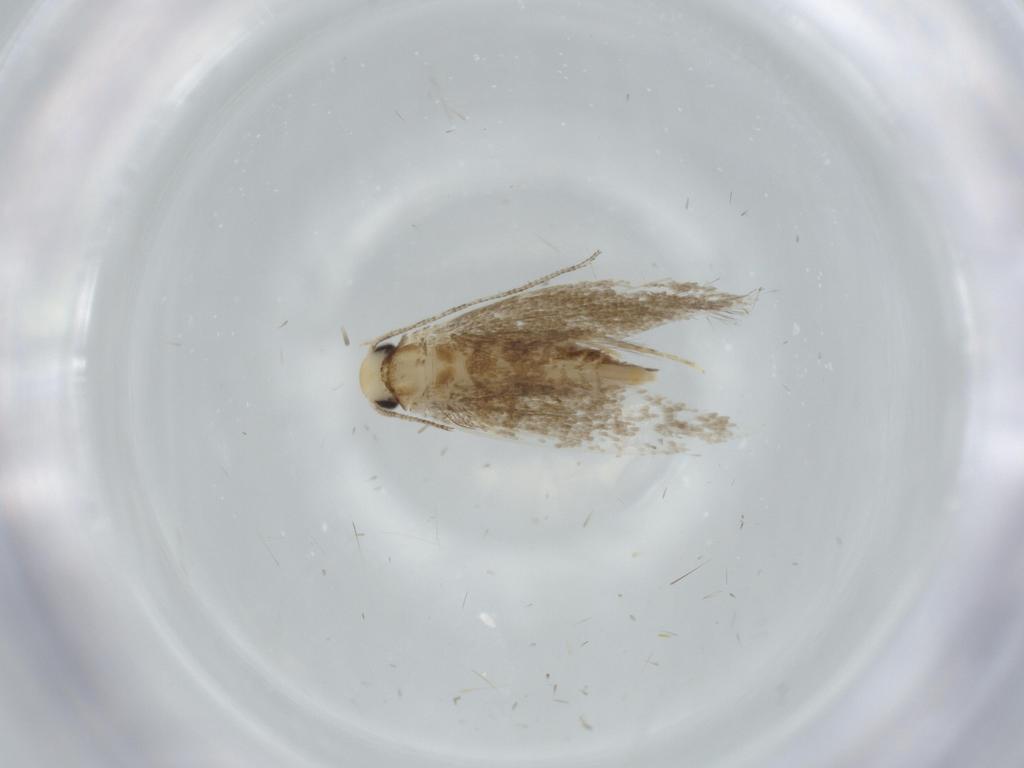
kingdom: Animalia
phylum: Arthropoda
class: Insecta
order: Lepidoptera
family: Tineidae
